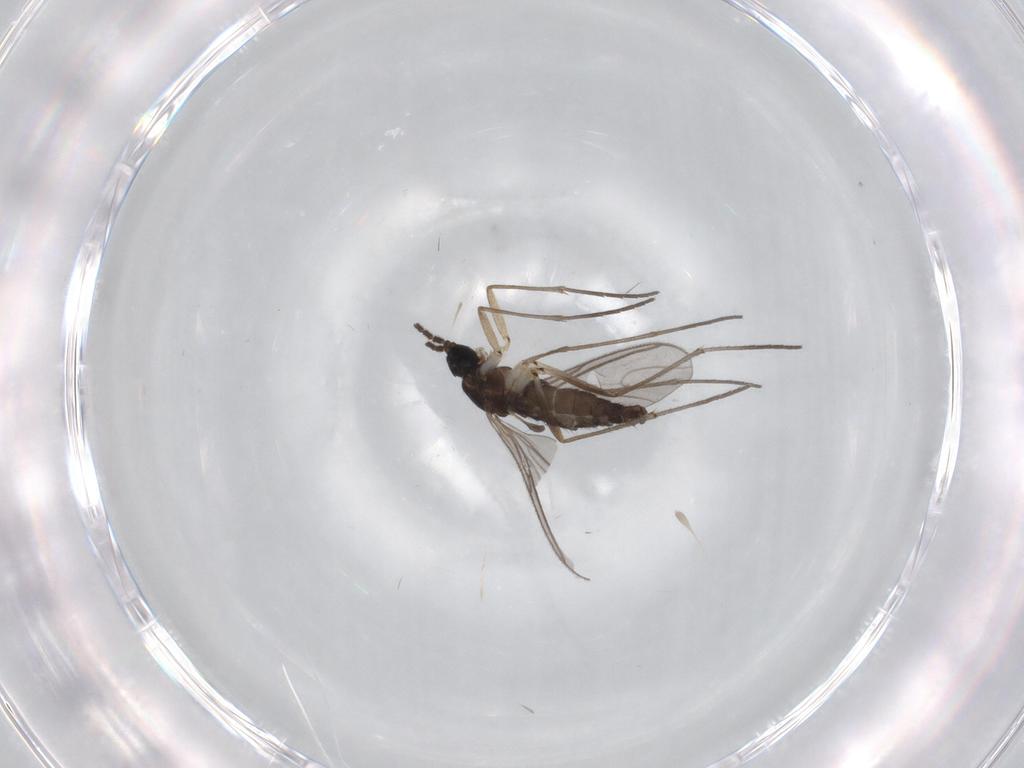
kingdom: Animalia
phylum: Arthropoda
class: Insecta
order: Diptera
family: Sciaridae
